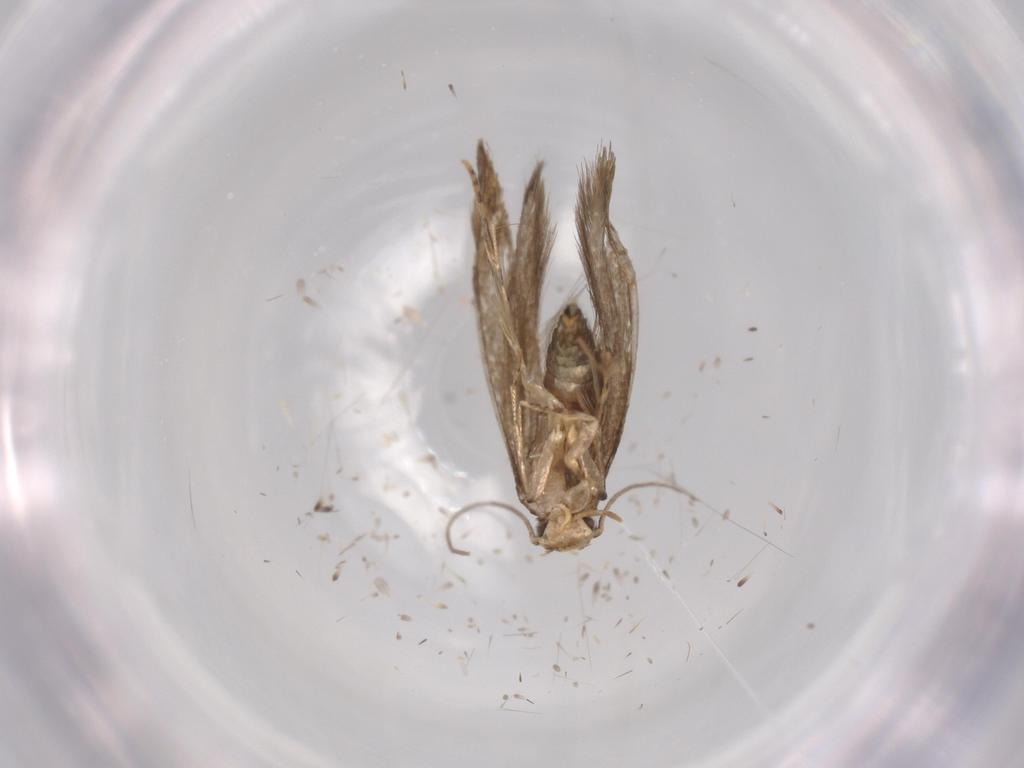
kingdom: Animalia
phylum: Arthropoda
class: Insecta
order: Lepidoptera
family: Tineidae
